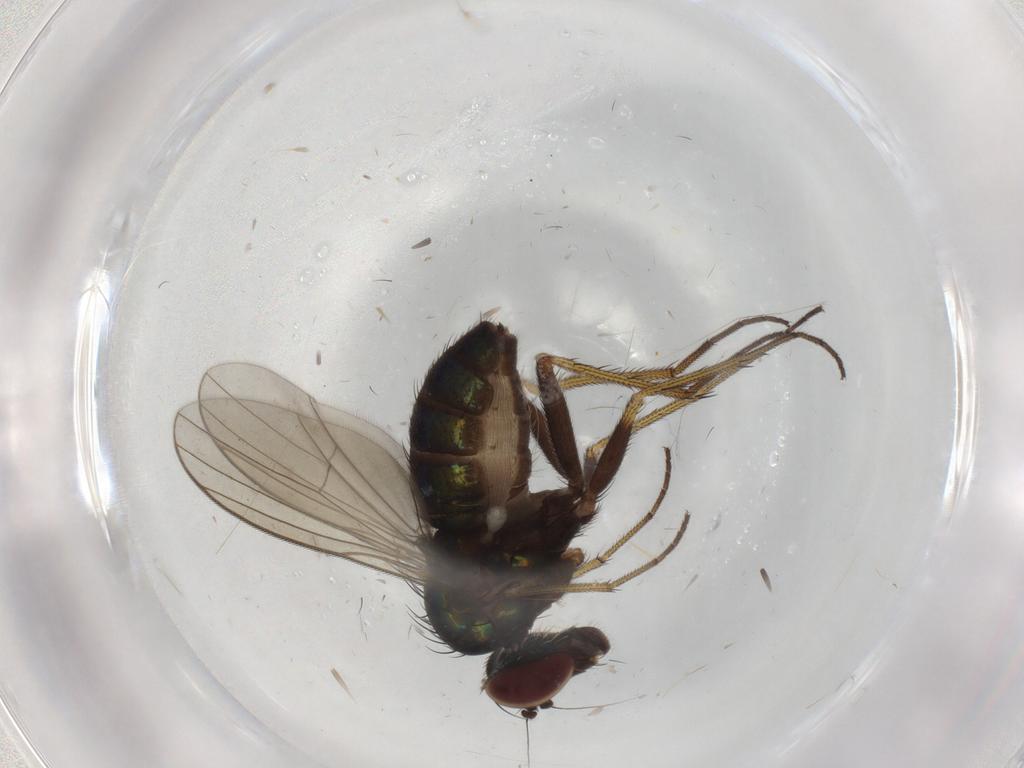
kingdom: Animalia
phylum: Arthropoda
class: Insecta
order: Diptera
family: Dolichopodidae
